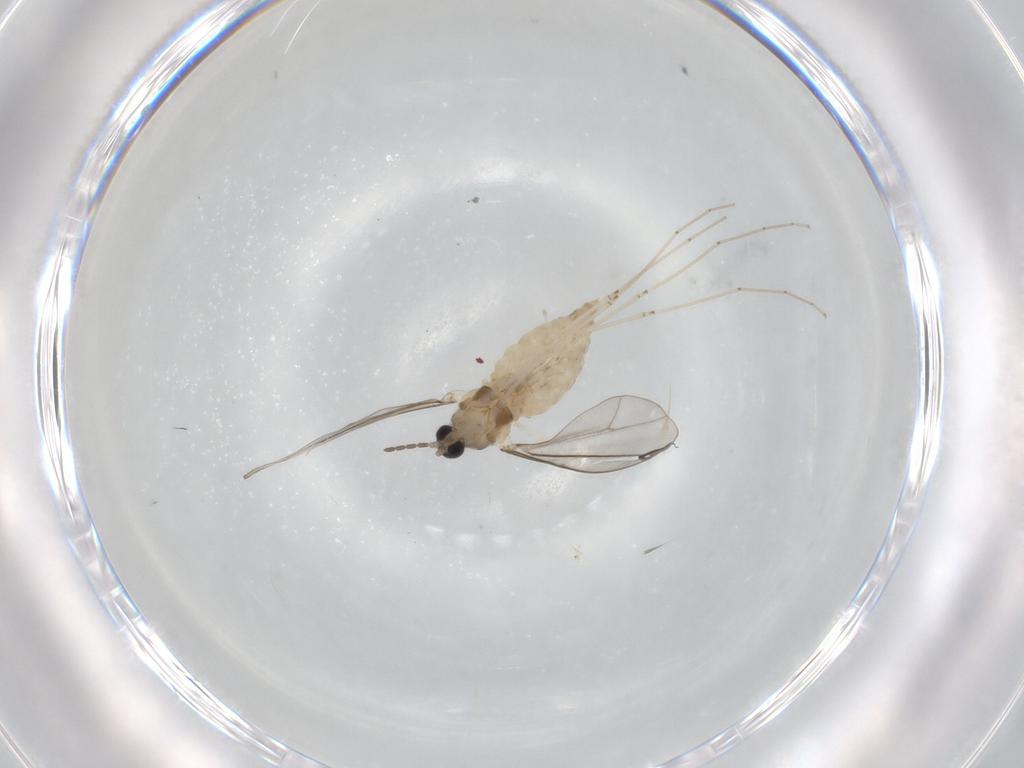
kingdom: Animalia
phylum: Arthropoda
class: Insecta
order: Diptera
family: Cecidomyiidae
